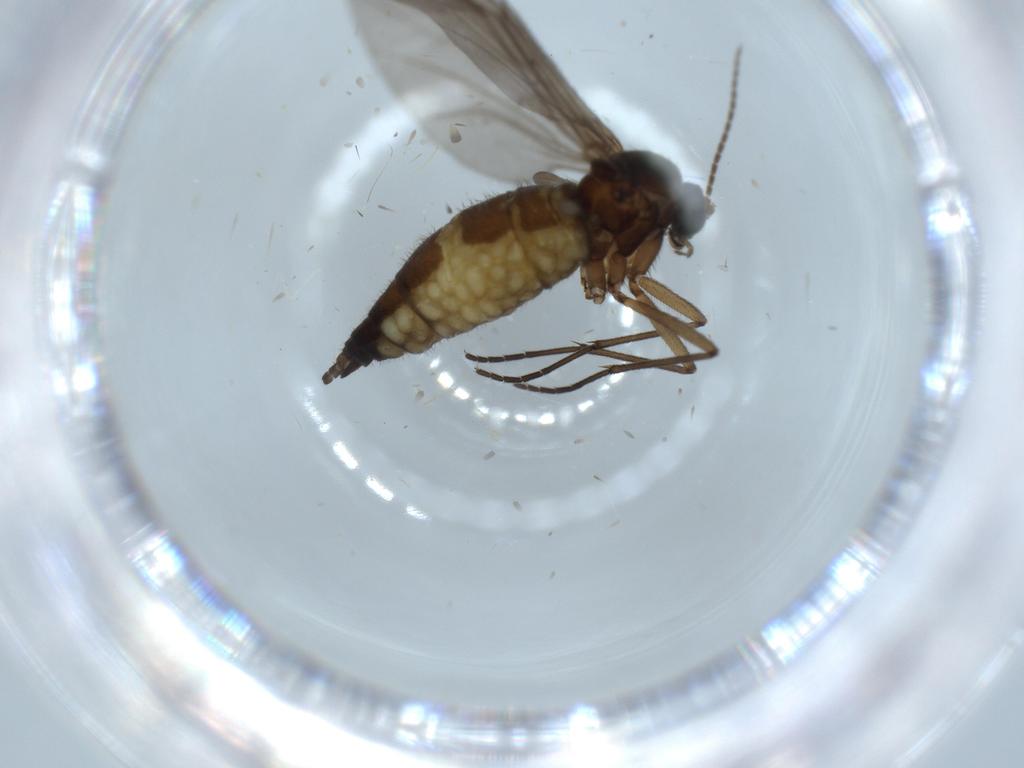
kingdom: Animalia
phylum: Arthropoda
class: Insecta
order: Diptera
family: Sciaridae
